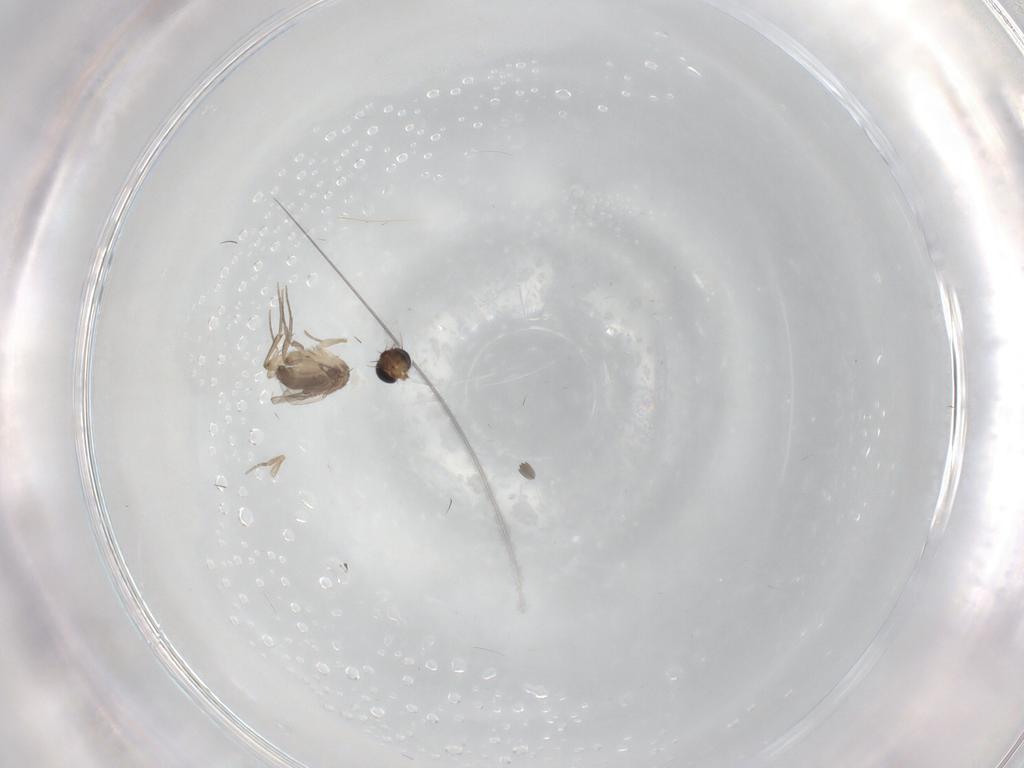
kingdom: Animalia
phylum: Arthropoda
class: Insecta
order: Diptera
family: Phoridae
